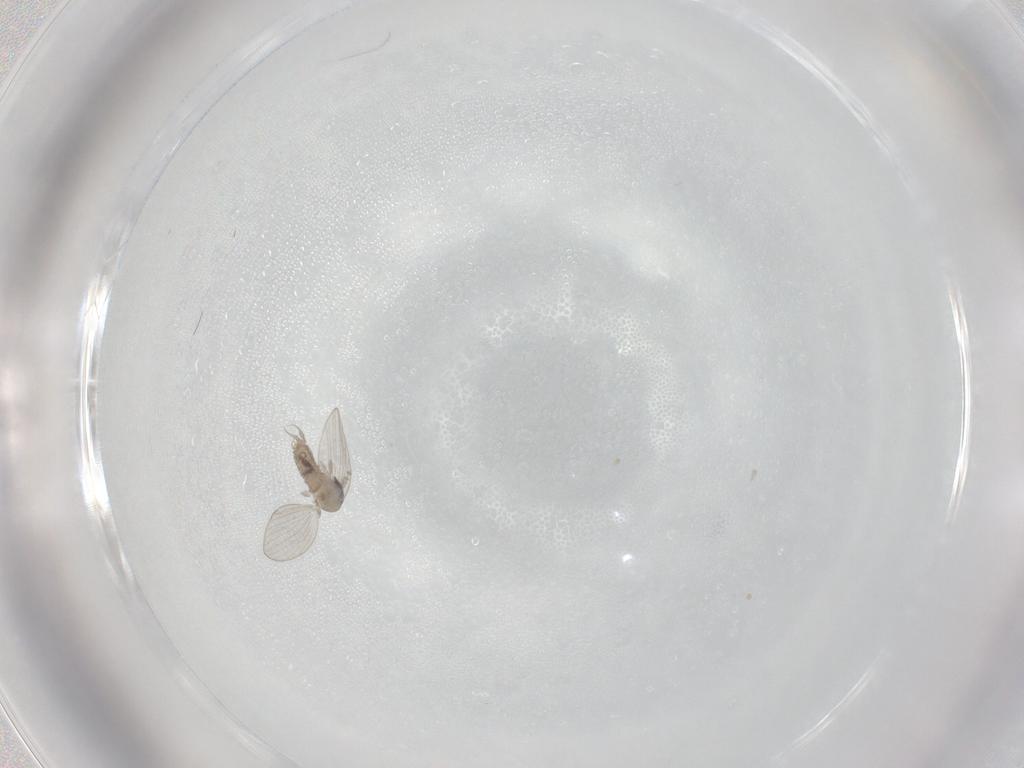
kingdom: Animalia
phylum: Arthropoda
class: Insecta
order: Diptera
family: Psychodidae
